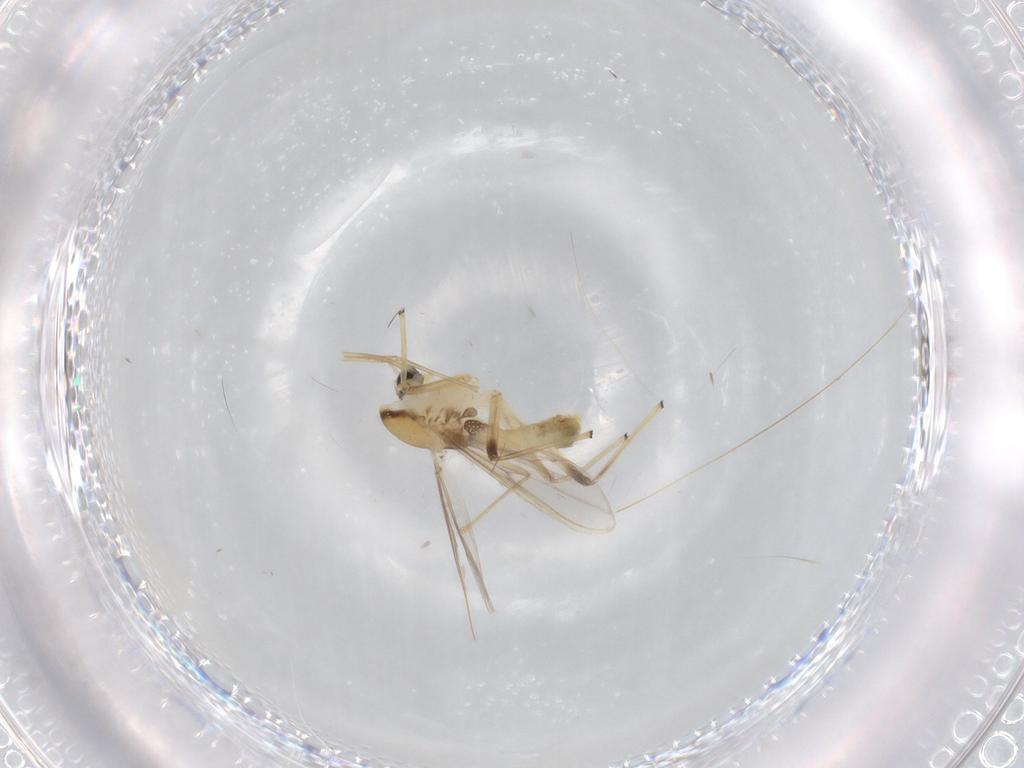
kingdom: Animalia
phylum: Arthropoda
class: Insecta
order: Diptera
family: Chironomidae
